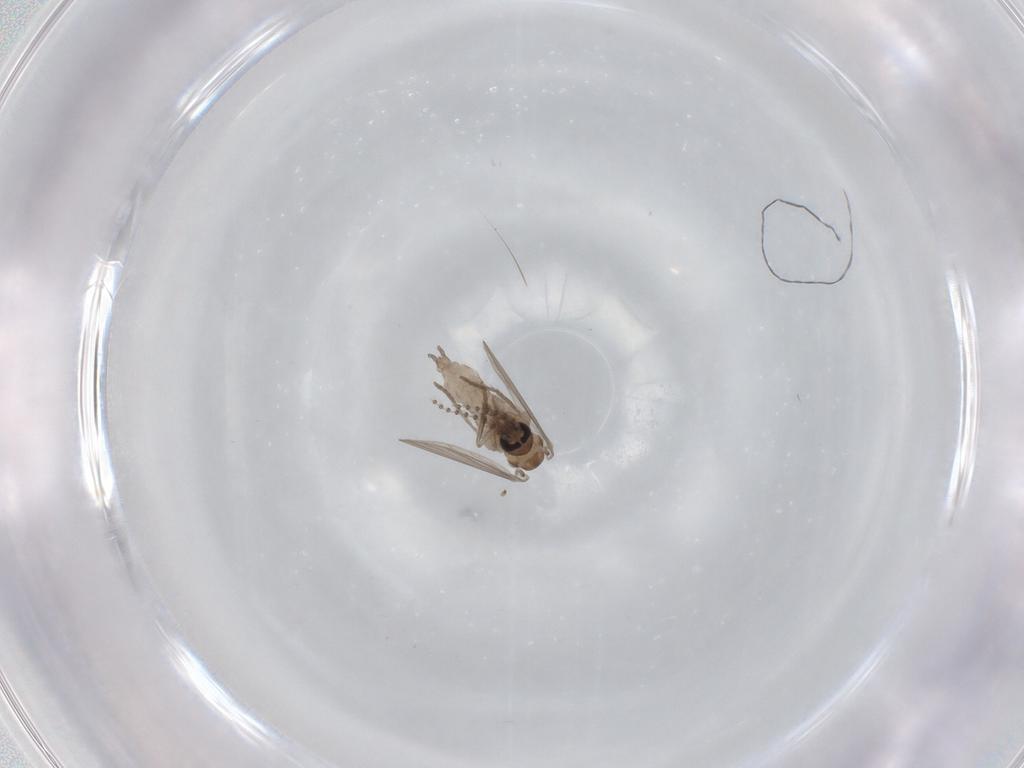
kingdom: Animalia
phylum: Arthropoda
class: Insecta
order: Diptera
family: Psychodidae
